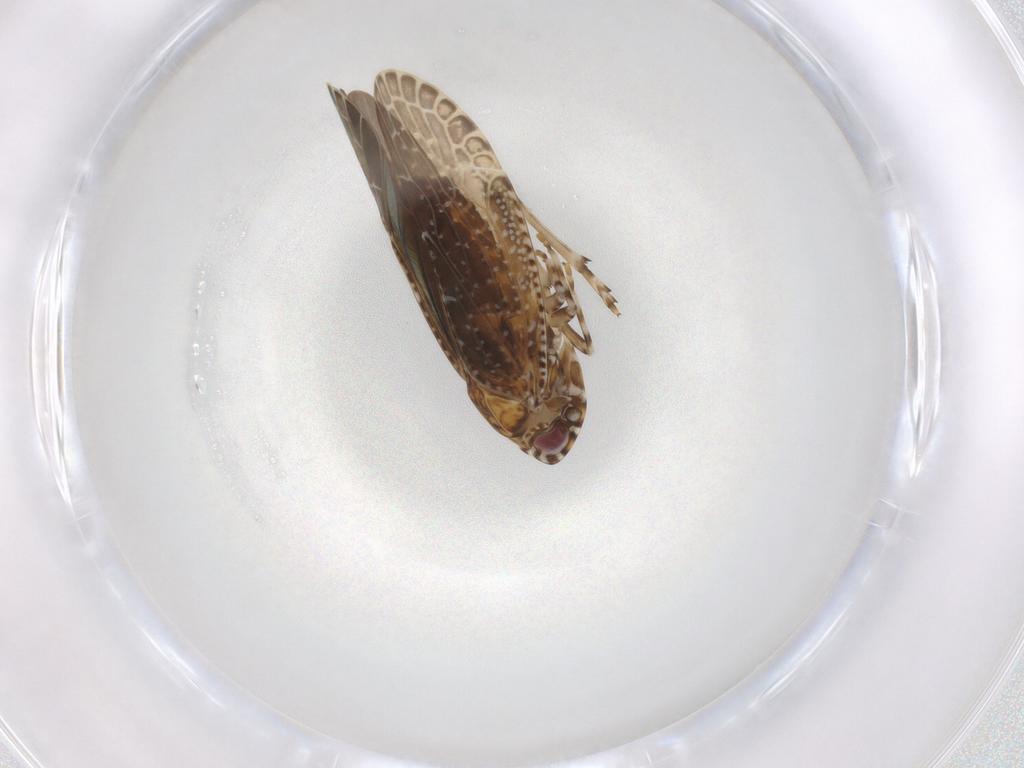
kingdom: Animalia
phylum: Arthropoda
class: Insecta
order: Hemiptera
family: Achilidae
